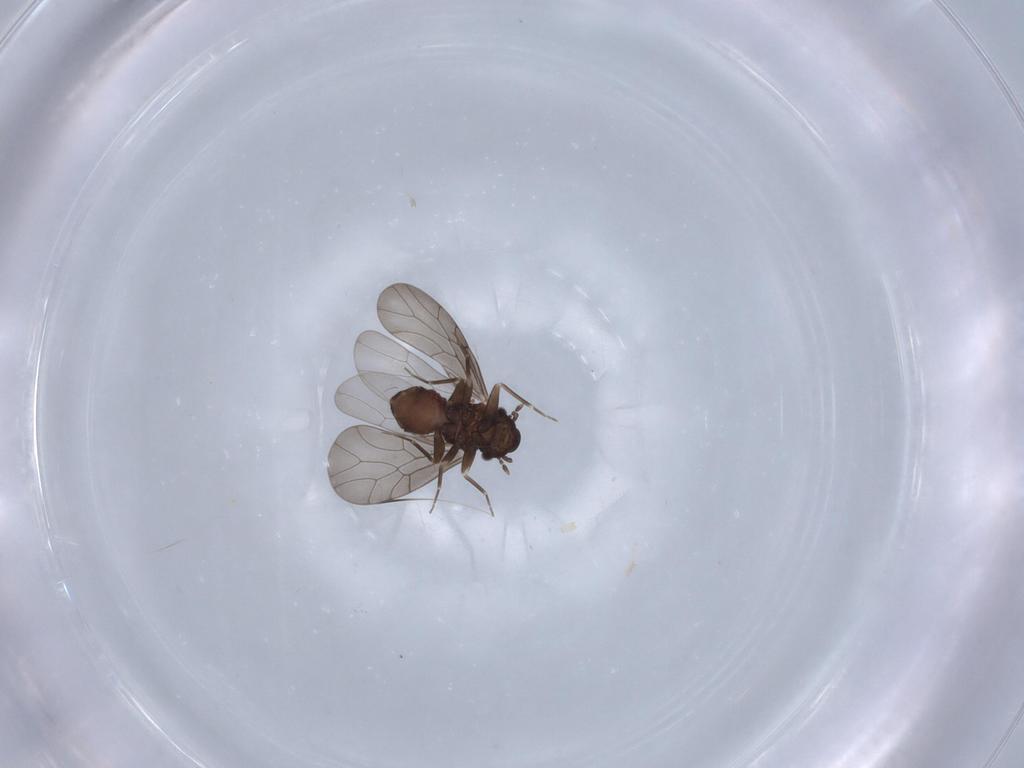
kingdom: Animalia
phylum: Arthropoda
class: Insecta
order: Psocodea
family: Lepidopsocidae
